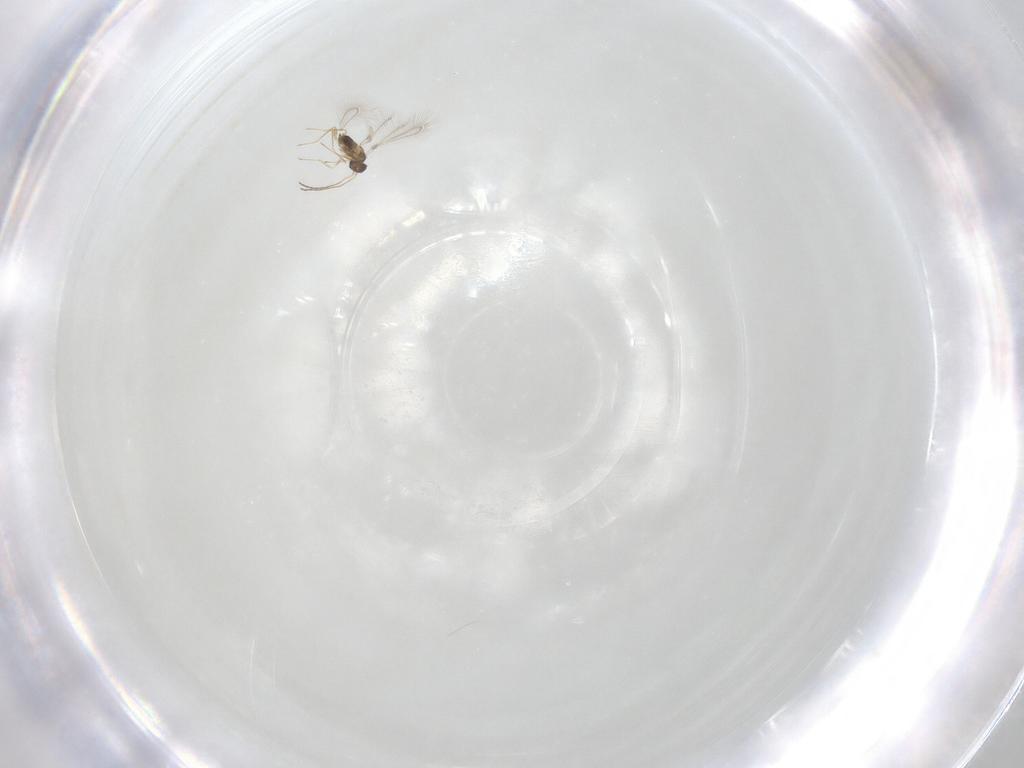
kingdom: Animalia
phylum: Arthropoda
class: Insecta
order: Hymenoptera
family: Mymaridae
